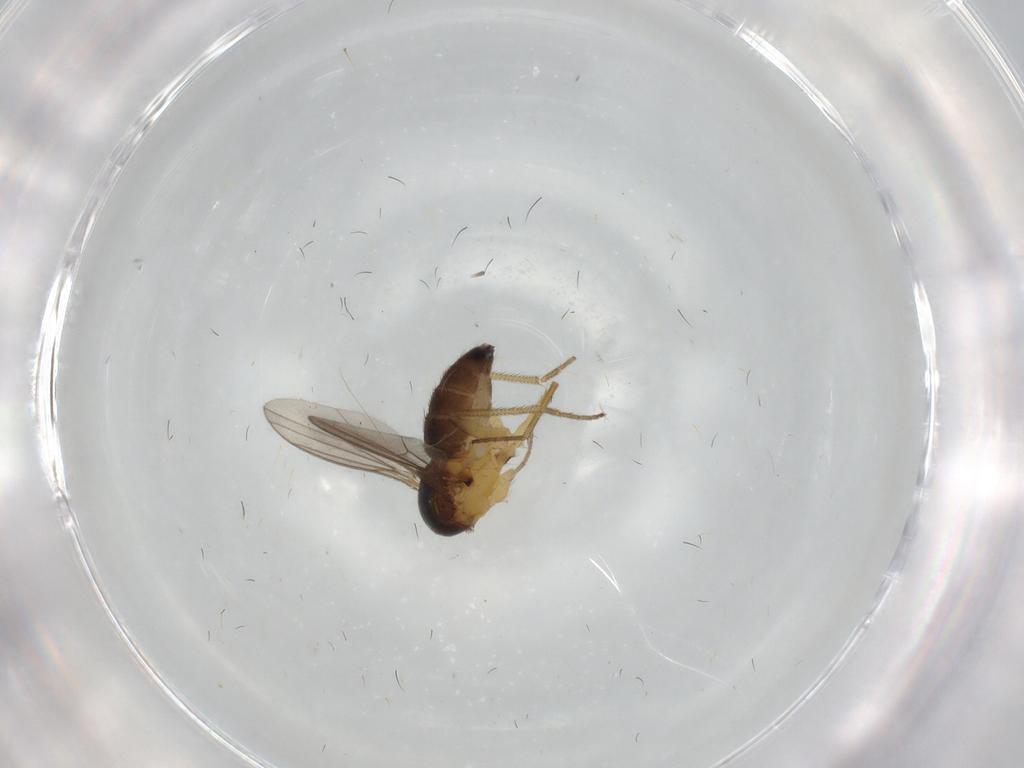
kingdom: Animalia
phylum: Arthropoda
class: Insecta
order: Diptera
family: Dolichopodidae
